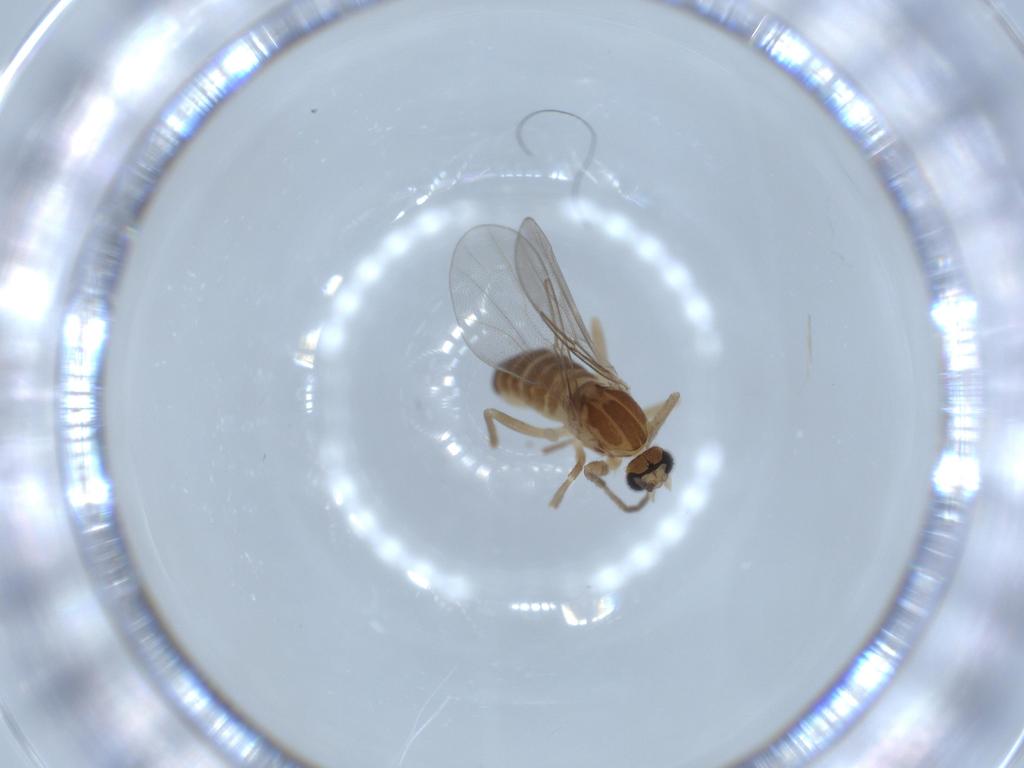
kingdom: Animalia
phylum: Arthropoda
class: Insecta
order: Diptera
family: Cecidomyiidae
